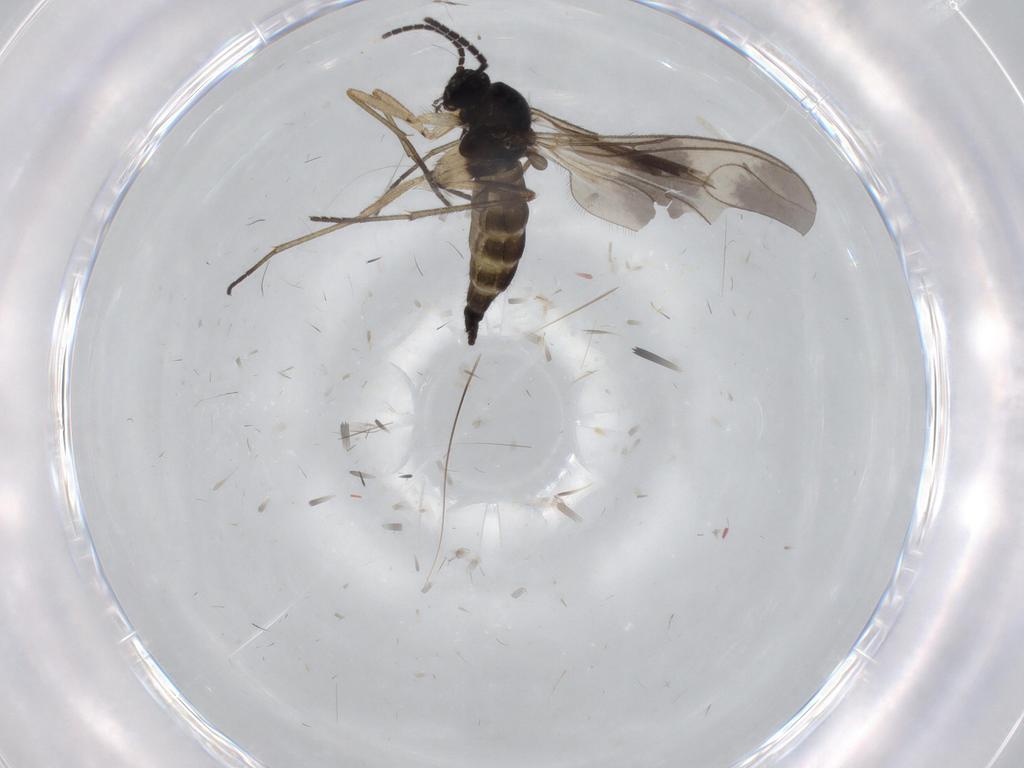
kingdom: Animalia
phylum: Arthropoda
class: Insecta
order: Diptera
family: Sciaridae
